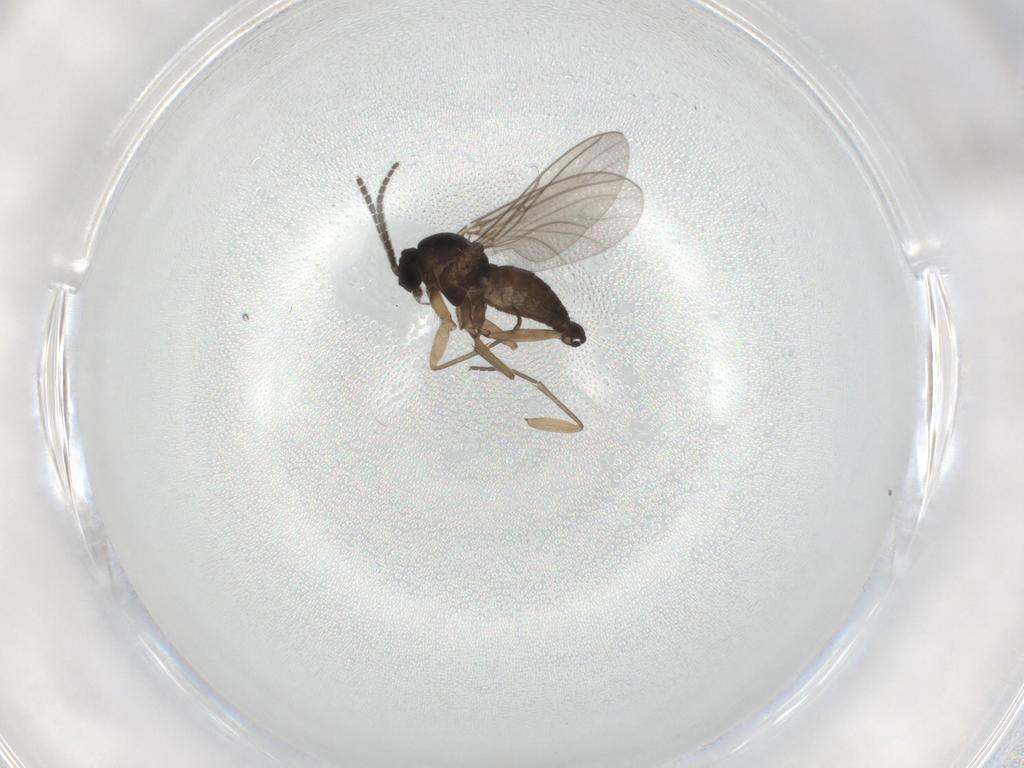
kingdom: Animalia
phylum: Arthropoda
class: Insecta
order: Diptera
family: Sciaridae
